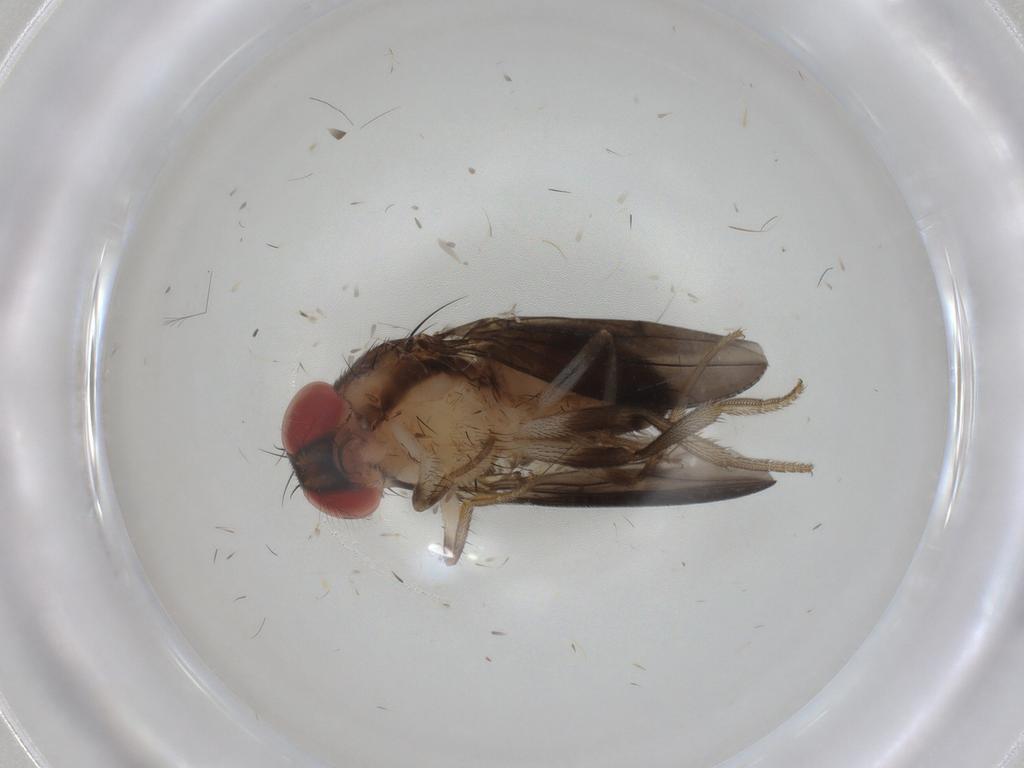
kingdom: Animalia
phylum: Arthropoda
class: Insecta
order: Diptera
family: Drosophilidae
